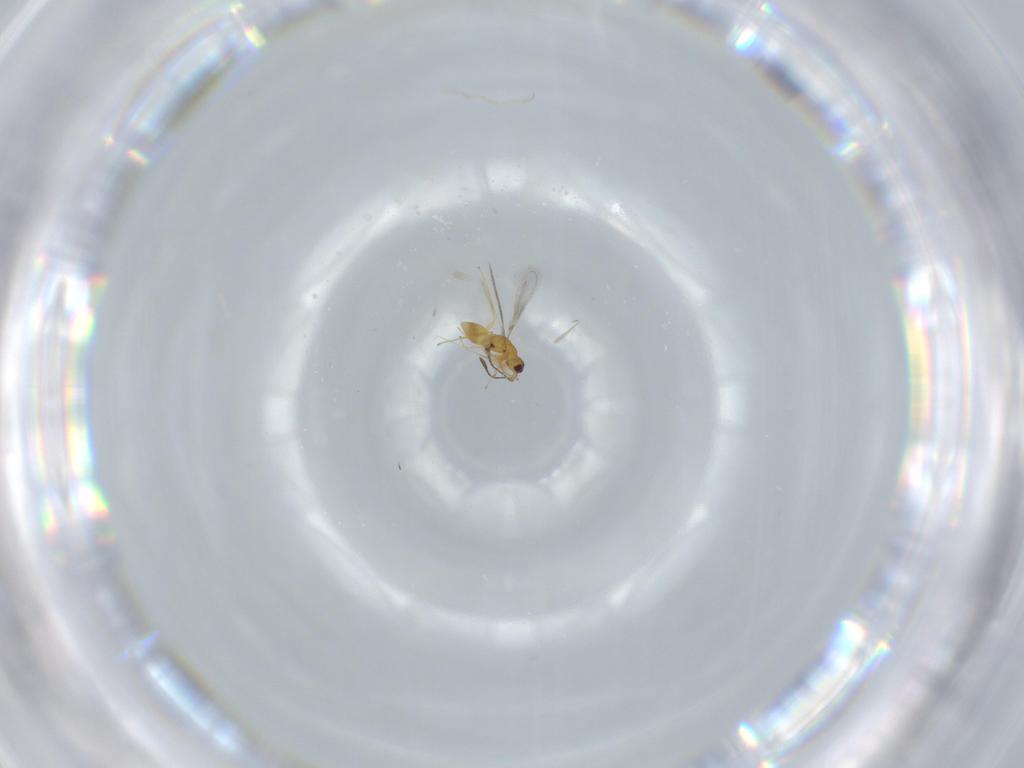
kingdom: Animalia
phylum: Arthropoda
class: Insecta
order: Hymenoptera
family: Mymaridae
